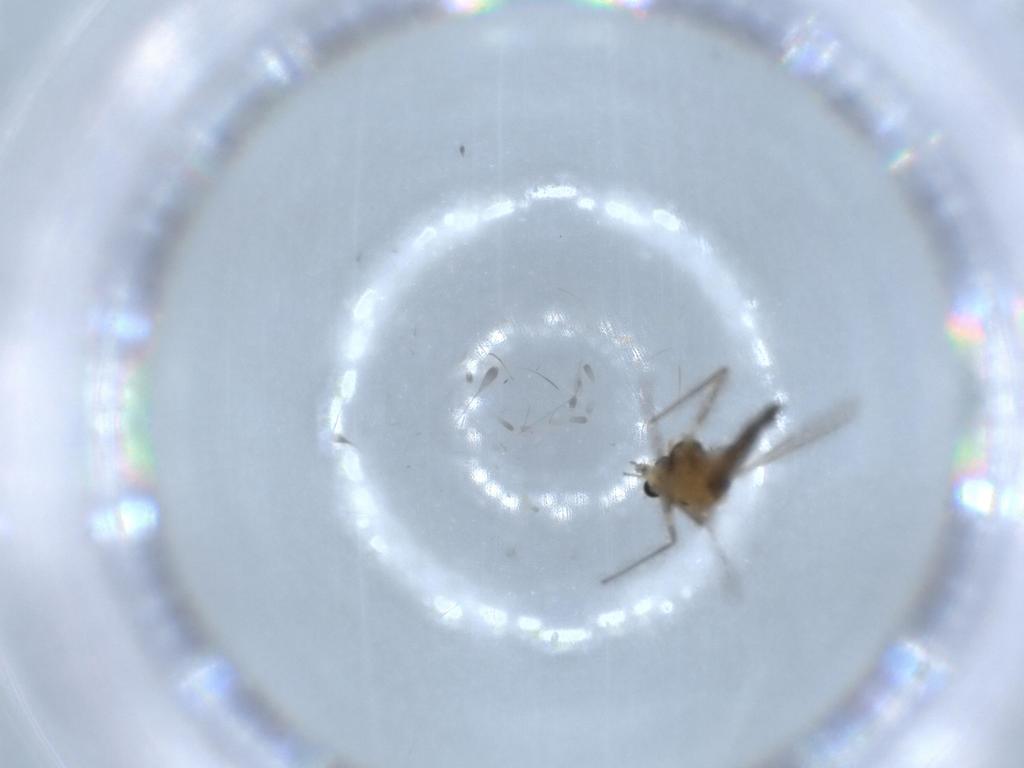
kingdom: Animalia
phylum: Arthropoda
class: Insecta
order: Diptera
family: Chironomidae
